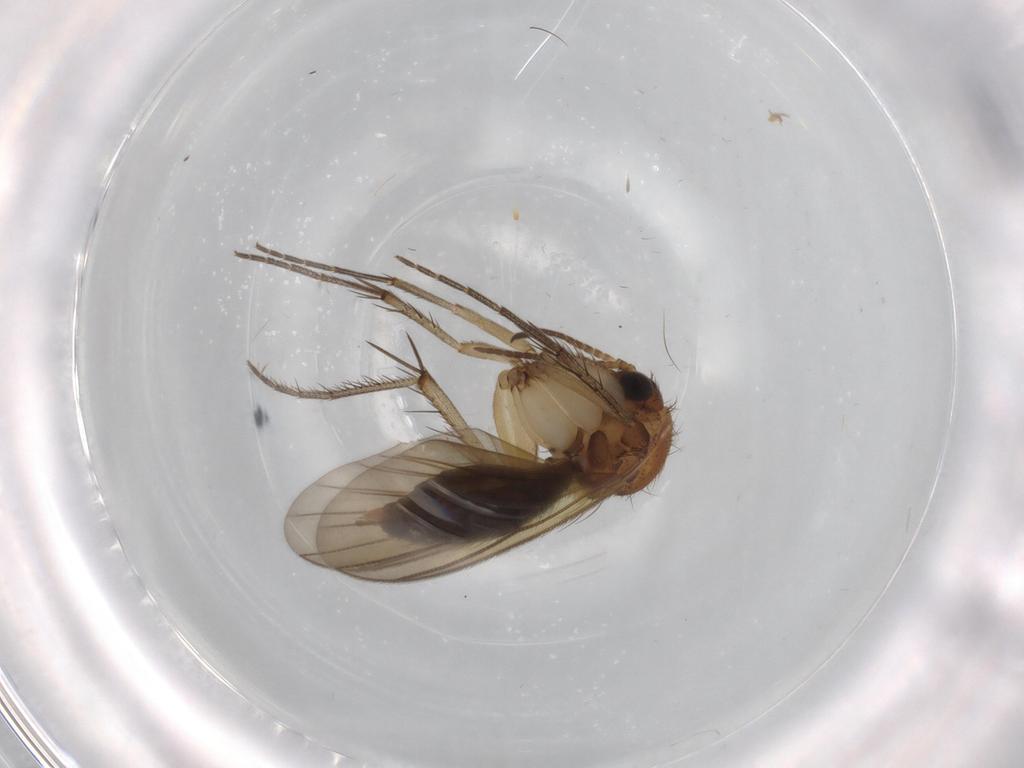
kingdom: Animalia
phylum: Arthropoda
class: Insecta
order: Diptera
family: Mycetophilidae
